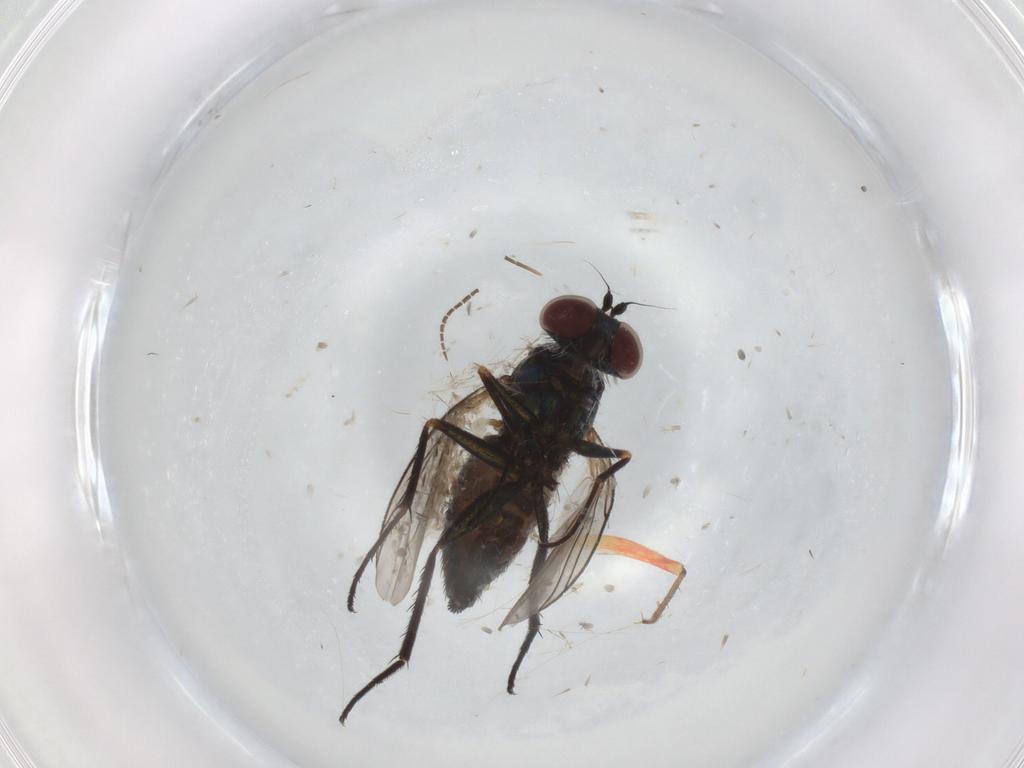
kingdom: Animalia
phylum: Arthropoda
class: Insecta
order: Diptera
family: Dolichopodidae
